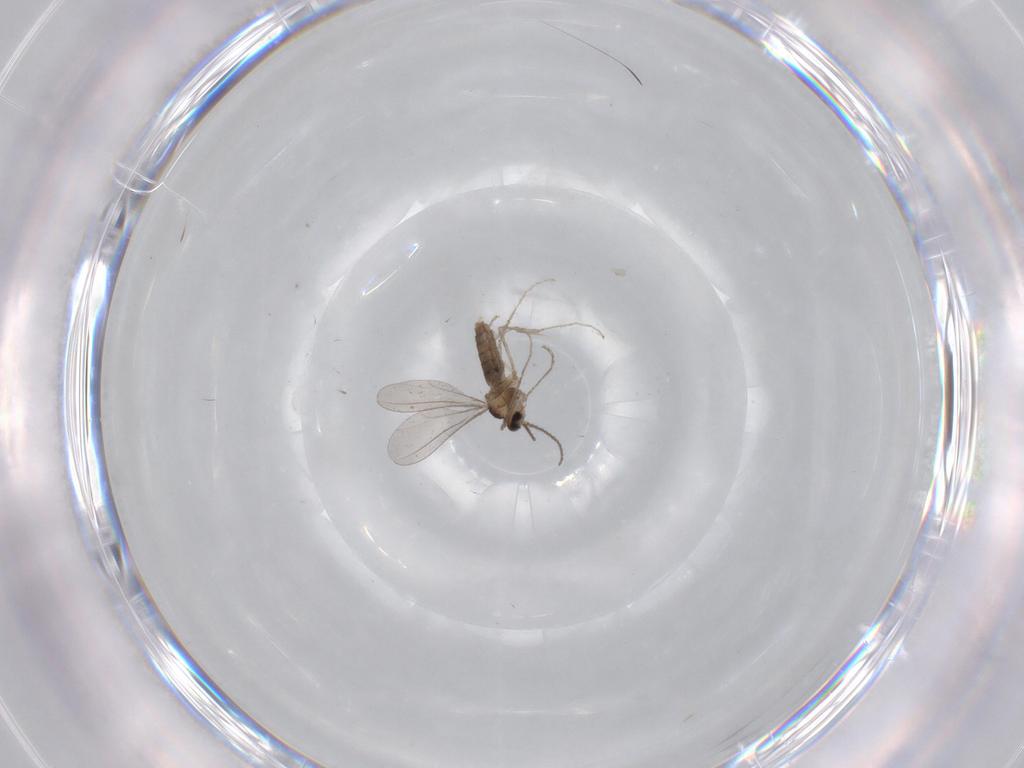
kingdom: Animalia
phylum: Arthropoda
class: Insecta
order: Diptera
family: Sciaridae
